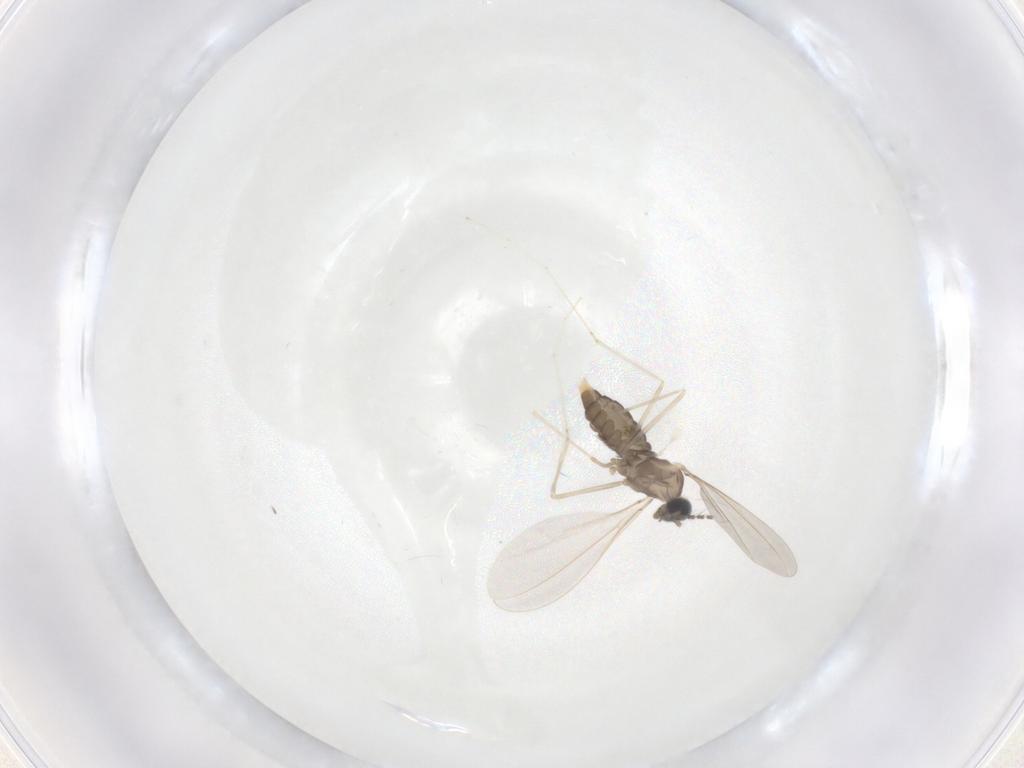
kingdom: Animalia
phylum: Arthropoda
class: Insecta
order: Diptera
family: Cecidomyiidae
